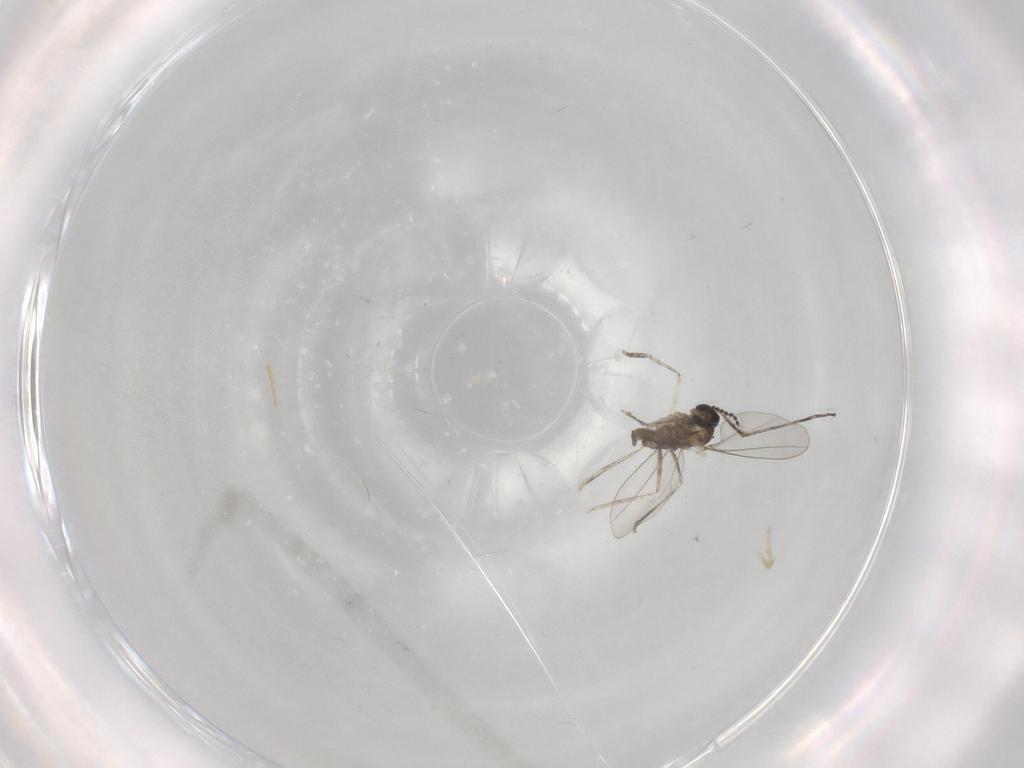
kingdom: Animalia
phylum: Arthropoda
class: Insecta
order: Diptera
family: Cecidomyiidae
